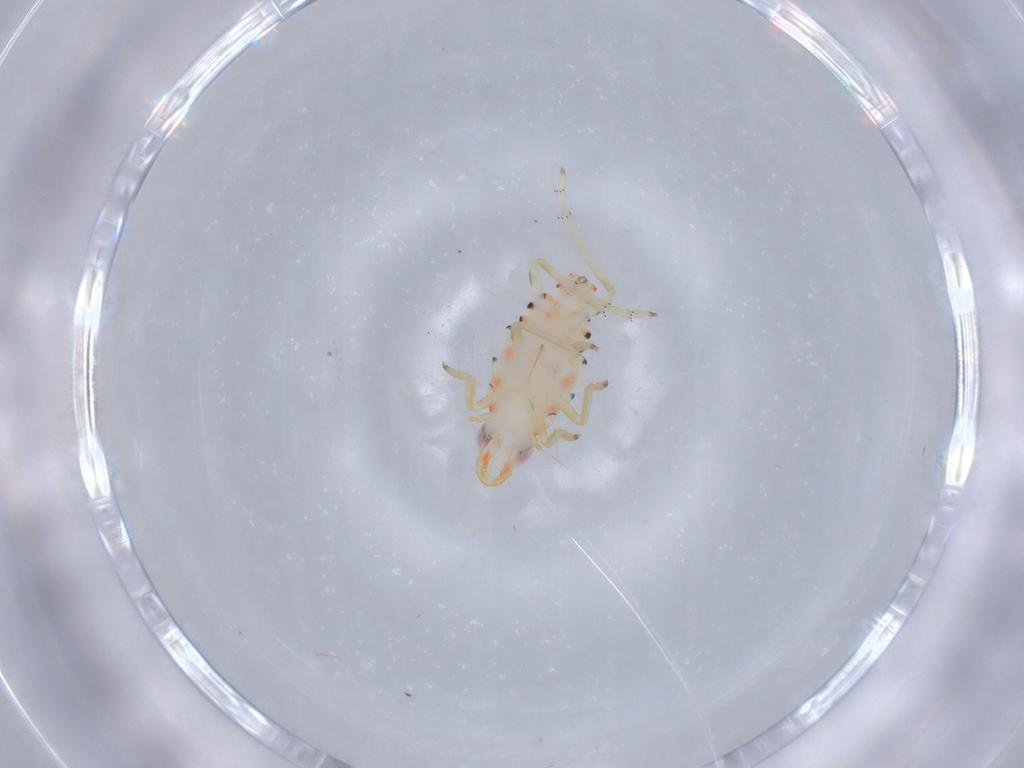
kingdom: Animalia
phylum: Arthropoda
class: Insecta
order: Hemiptera
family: Tropiduchidae
